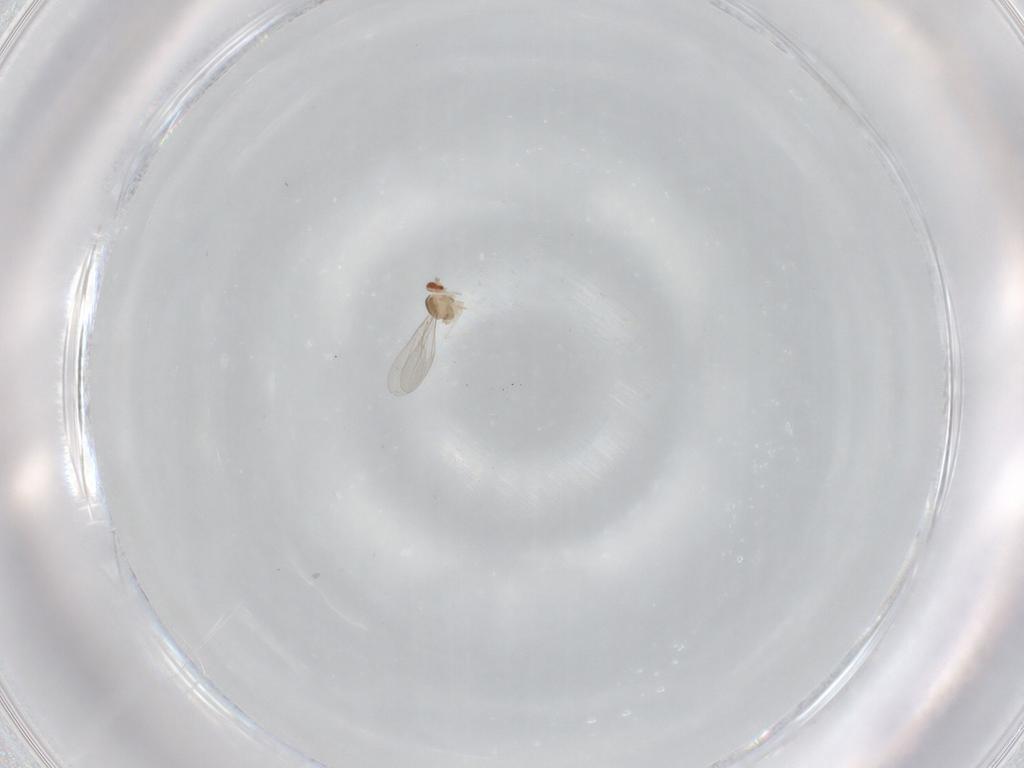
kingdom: Animalia
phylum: Arthropoda
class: Insecta
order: Diptera
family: Cecidomyiidae
